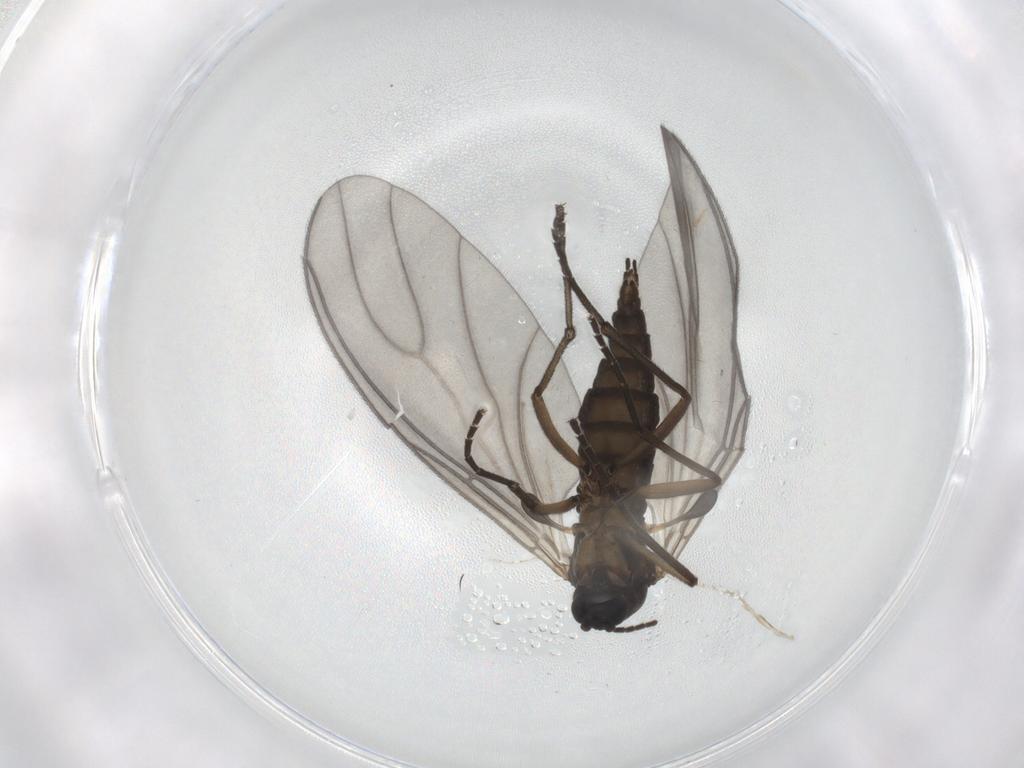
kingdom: Animalia
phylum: Arthropoda
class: Insecta
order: Diptera
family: Sciaridae
